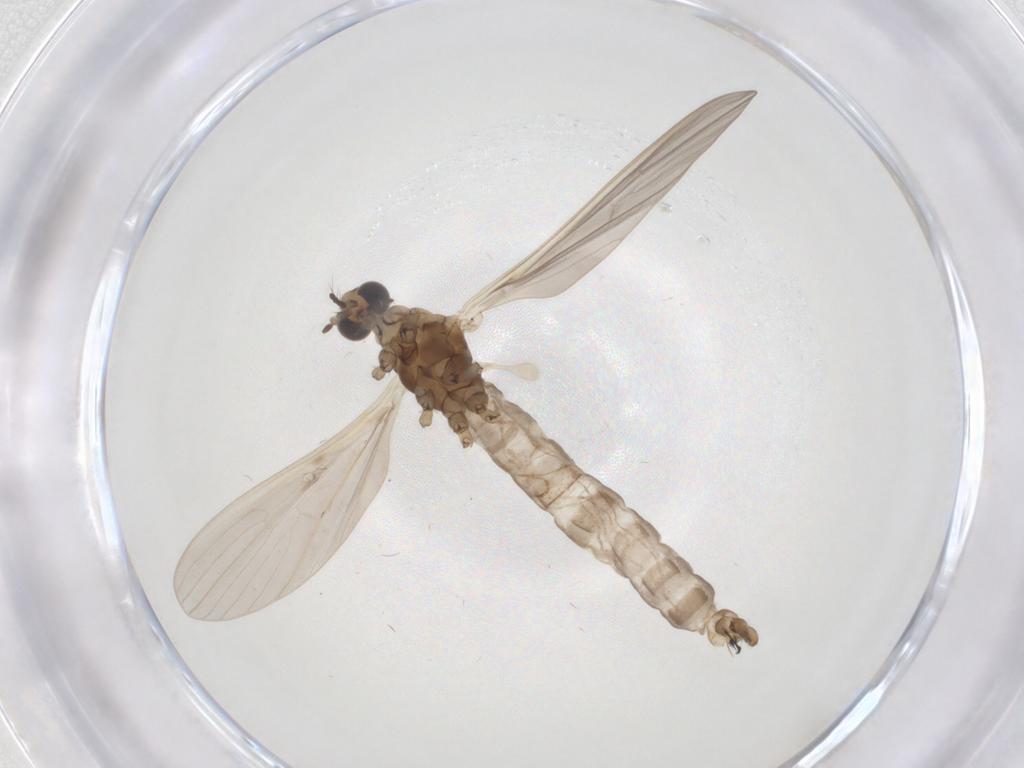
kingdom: Animalia
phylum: Arthropoda
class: Insecta
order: Diptera
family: Limoniidae
